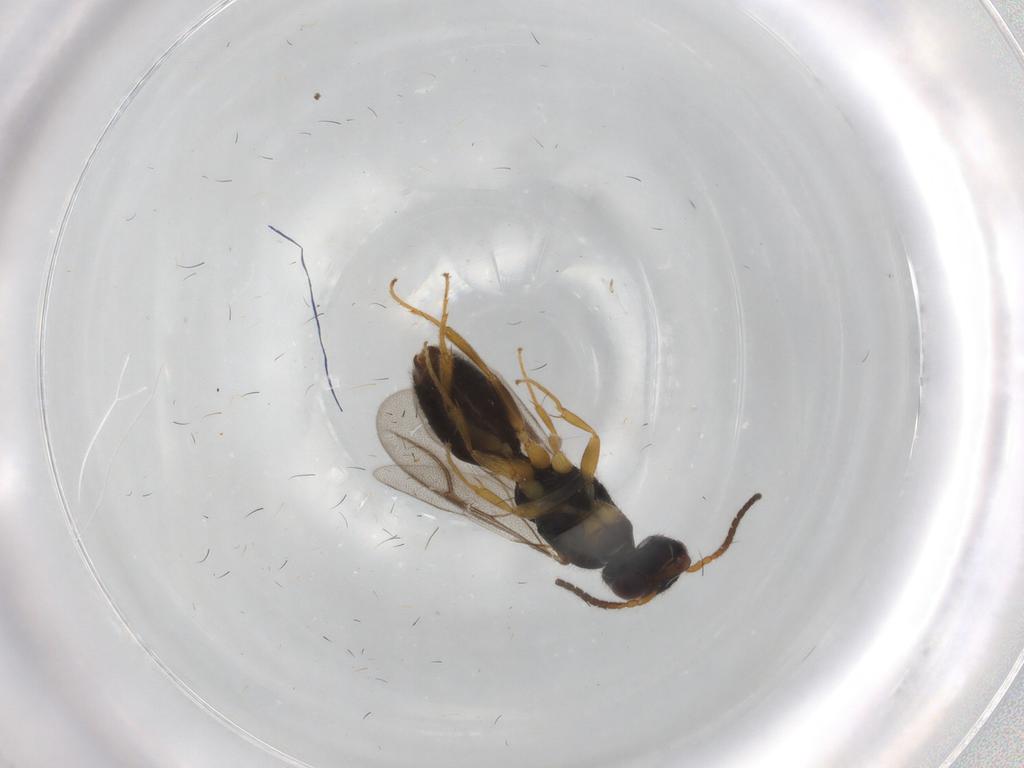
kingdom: Animalia
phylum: Arthropoda
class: Insecta
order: Hymenoptera
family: Bethylidae
